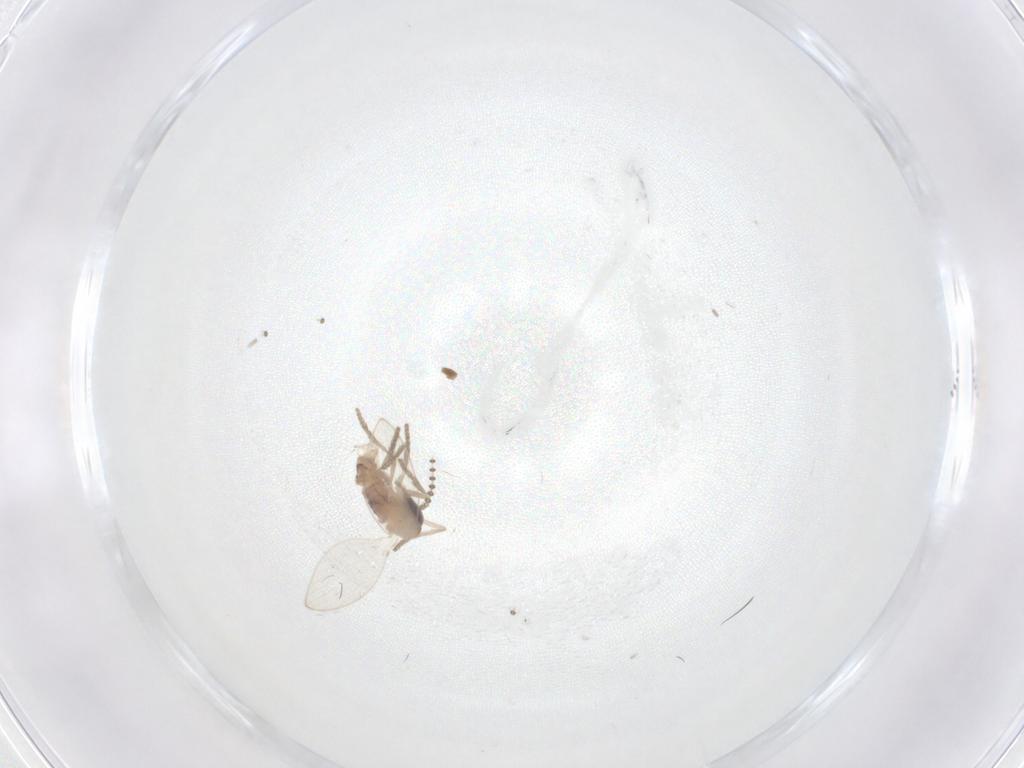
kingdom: Animalia
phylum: Arthropoda
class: Insecta
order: Diptera
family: Psychodidae
